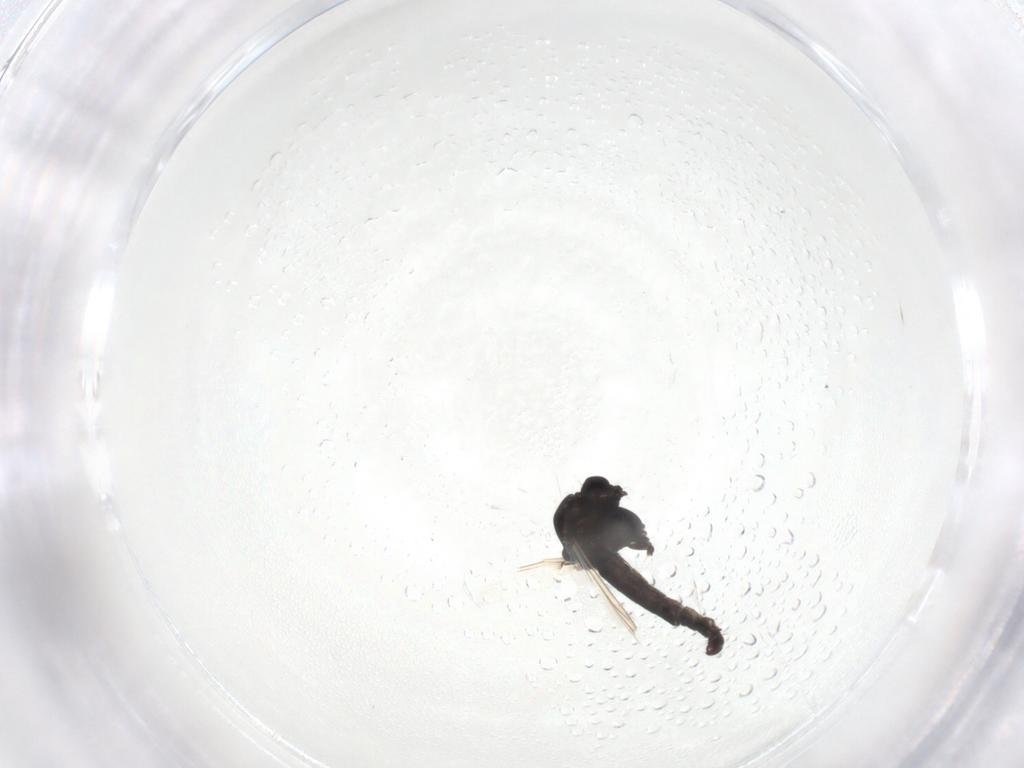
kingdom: Animalia
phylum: Arthropoda
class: Insecta
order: Diptera
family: Chironomidae
